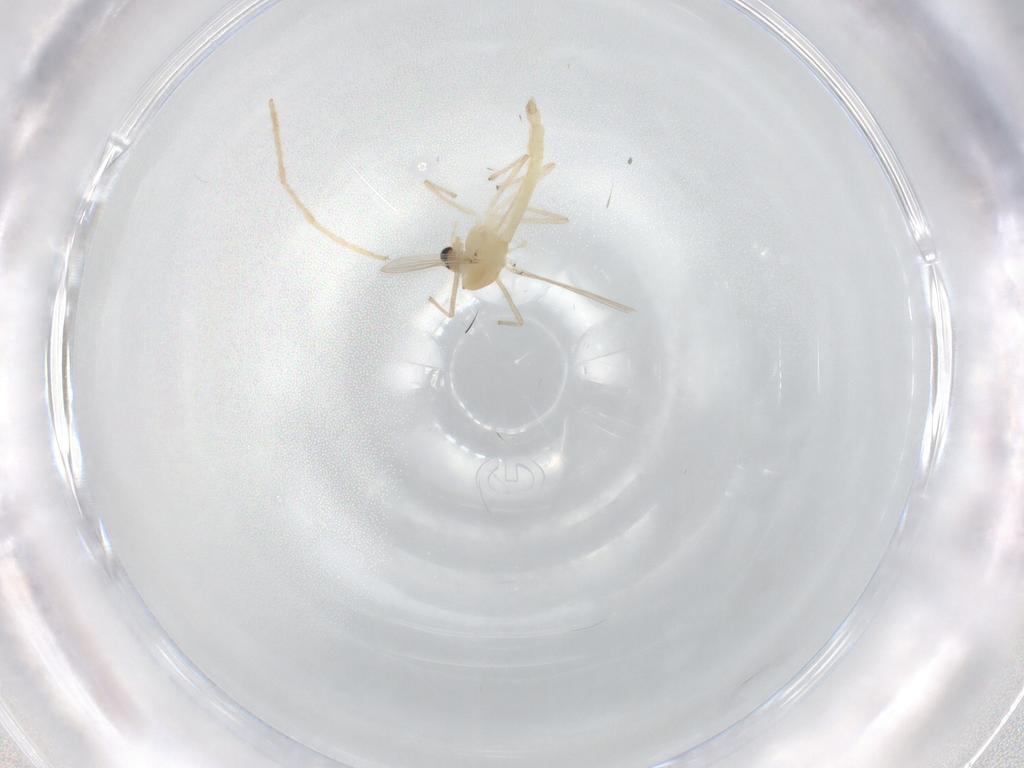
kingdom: Animalia
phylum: Arthropoda
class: Insecta
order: Diptera
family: Chironomidae
